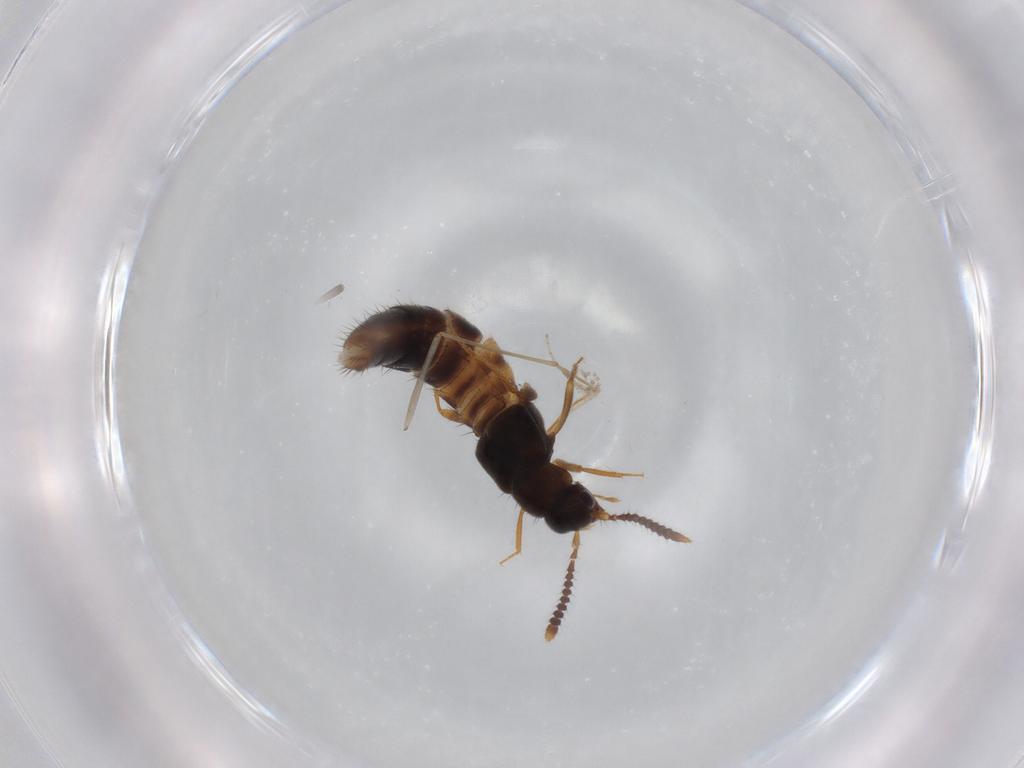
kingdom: Animalia
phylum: Arthropoda
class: Insecta
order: Coleoptera
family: Staphylinidae
